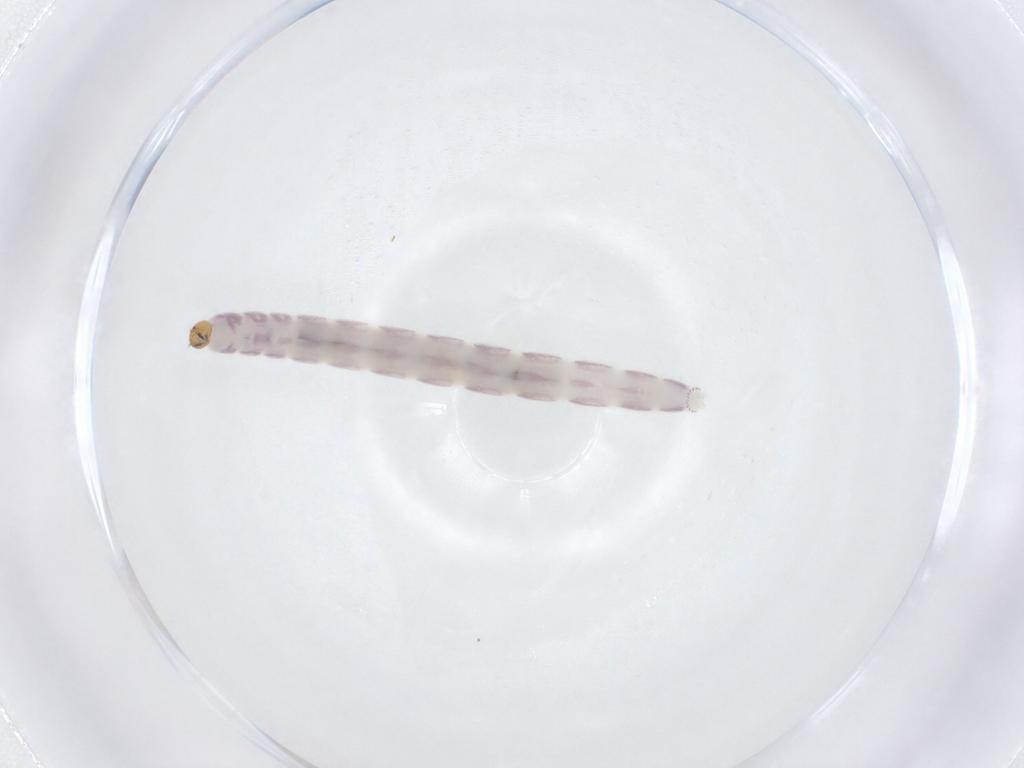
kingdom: Animalia
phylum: Arthropoda
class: Insecta
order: Diptera
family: Chironomidae
